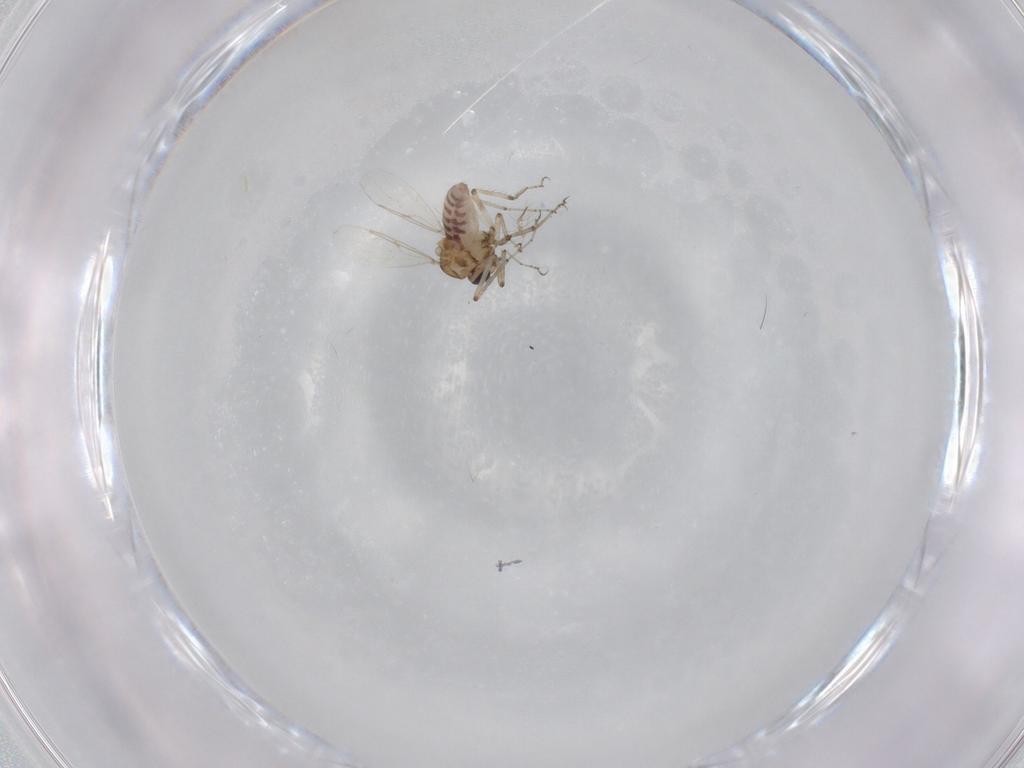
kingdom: Animalia
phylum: Arthropoda
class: Insecta
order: Diptera
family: Ceratopogonidae
